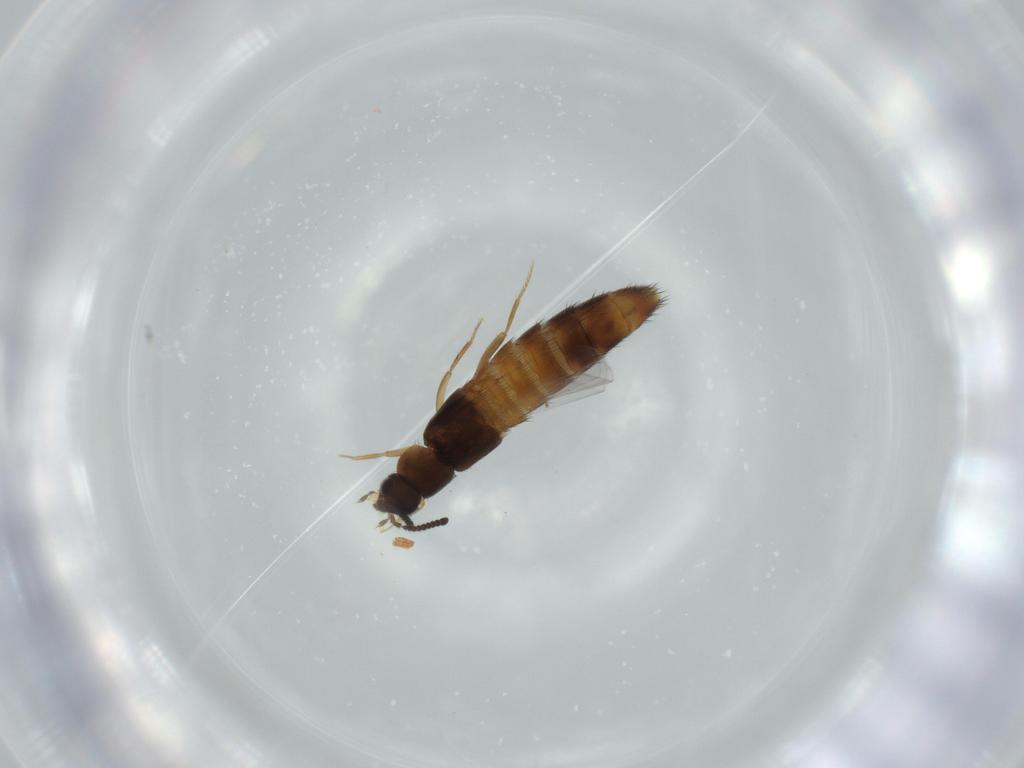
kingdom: Animalia
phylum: Arthropoda
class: Insecta
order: Coleoptera
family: Staphylinidae
